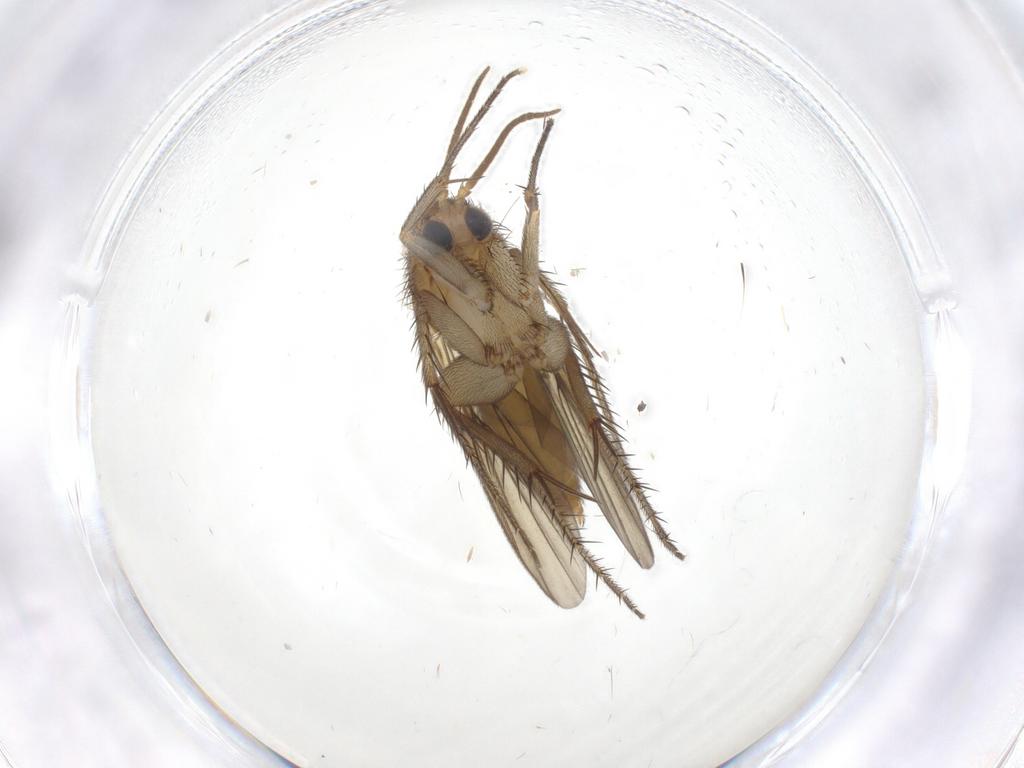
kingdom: Animalia
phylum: Arthropoda
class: Insecta
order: Diptera
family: Mycetophilidae
